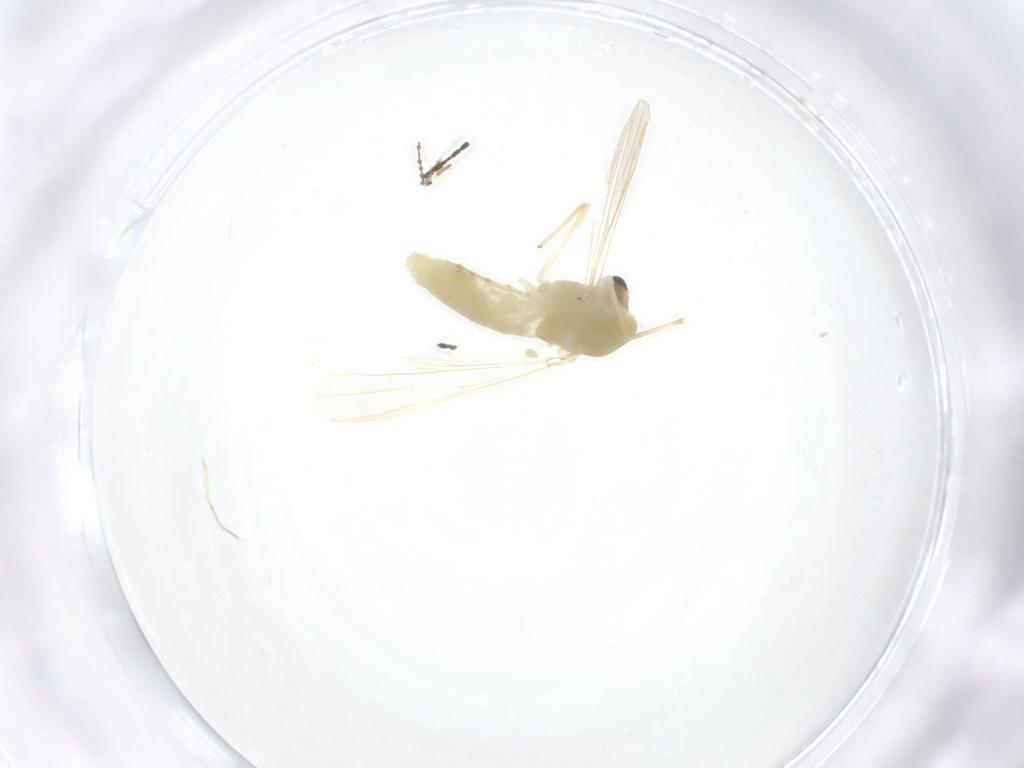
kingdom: Animalia
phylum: Arthropoda
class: Insecta
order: Diptera
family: Chironomidae
